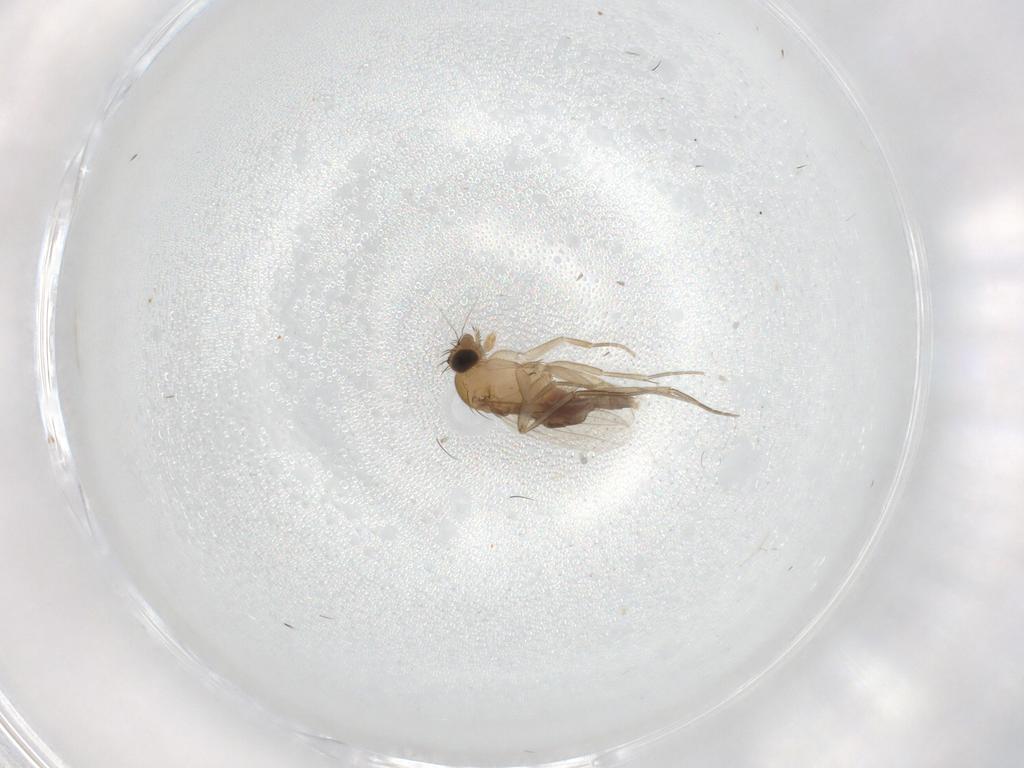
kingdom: Animalia
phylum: Arthropoda
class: Insecta
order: Diptera
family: Phoridae
